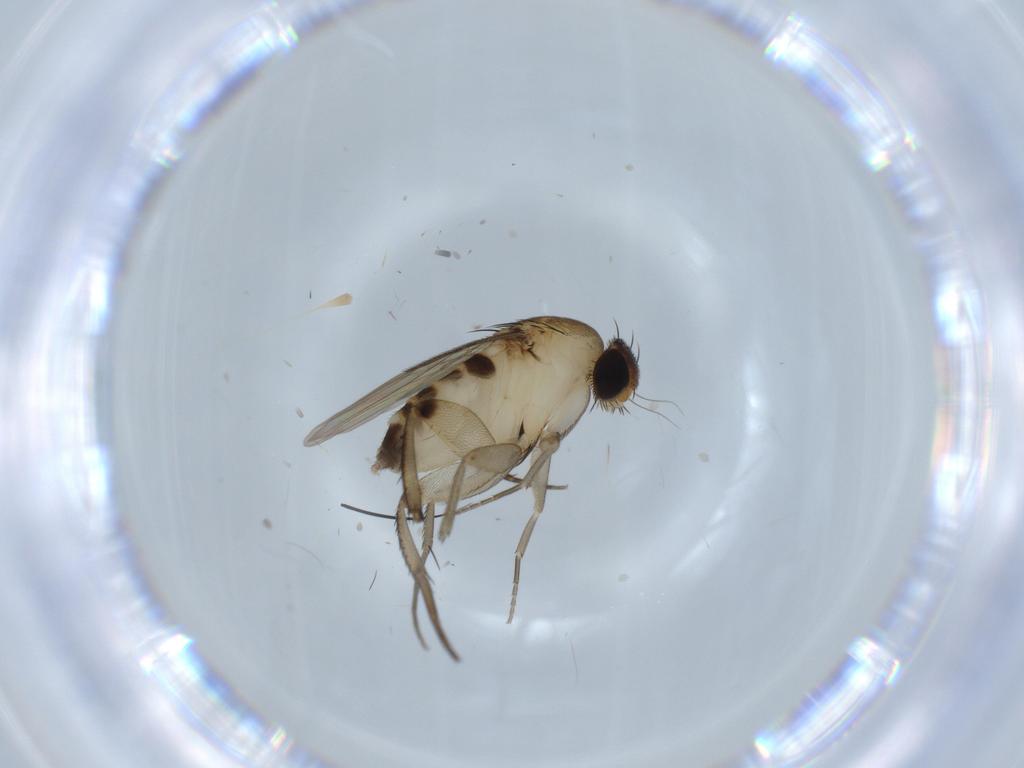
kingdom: Animalia
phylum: Arthropoda
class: Insecta
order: Diptera
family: Phoridae
